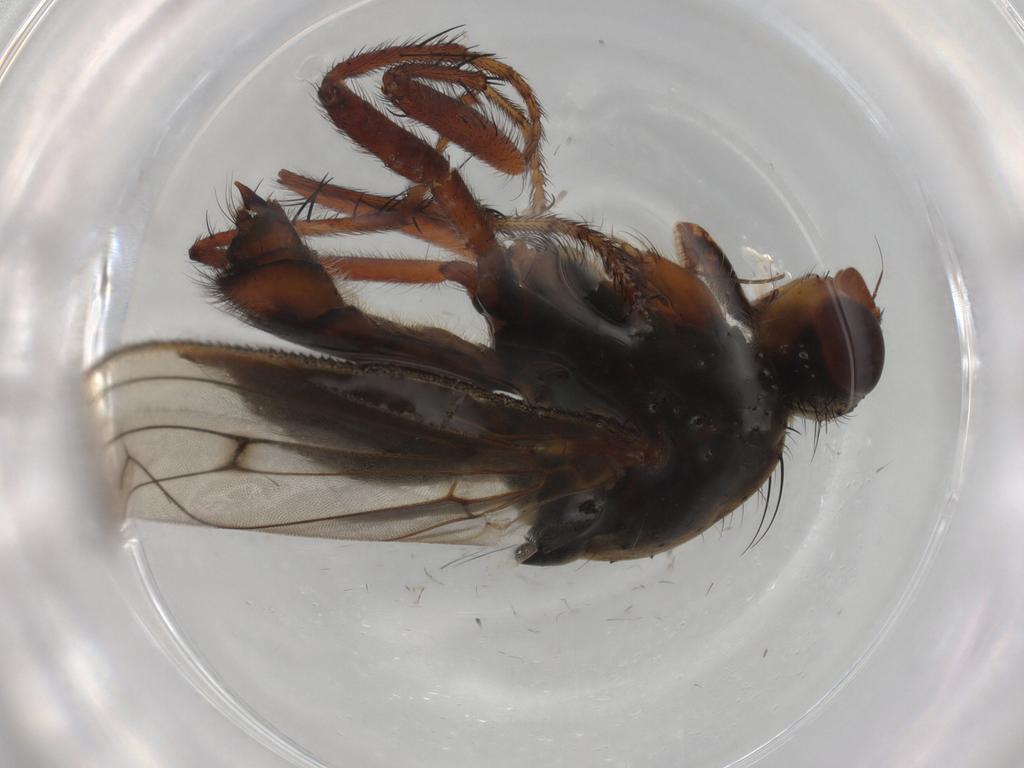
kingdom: Animalia
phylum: Arthropoda
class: Insecta
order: Diptera
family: Scathophagidae
